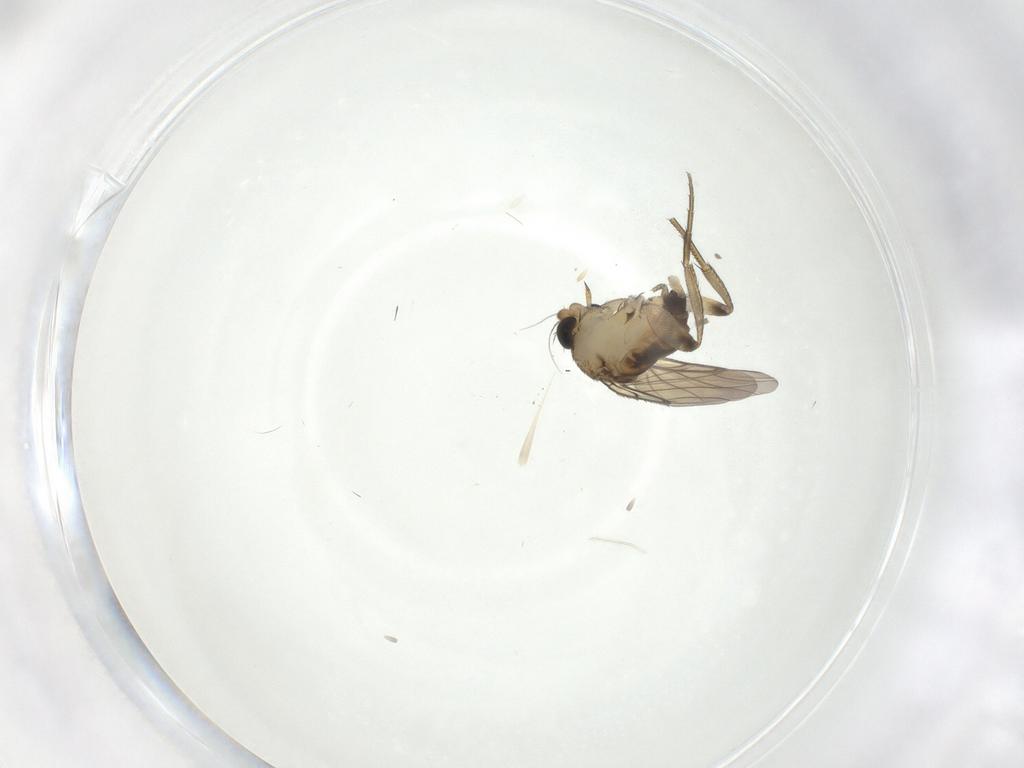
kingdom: Animalia
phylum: Arthropoda
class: Insecta
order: Diptera
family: Phoridae
